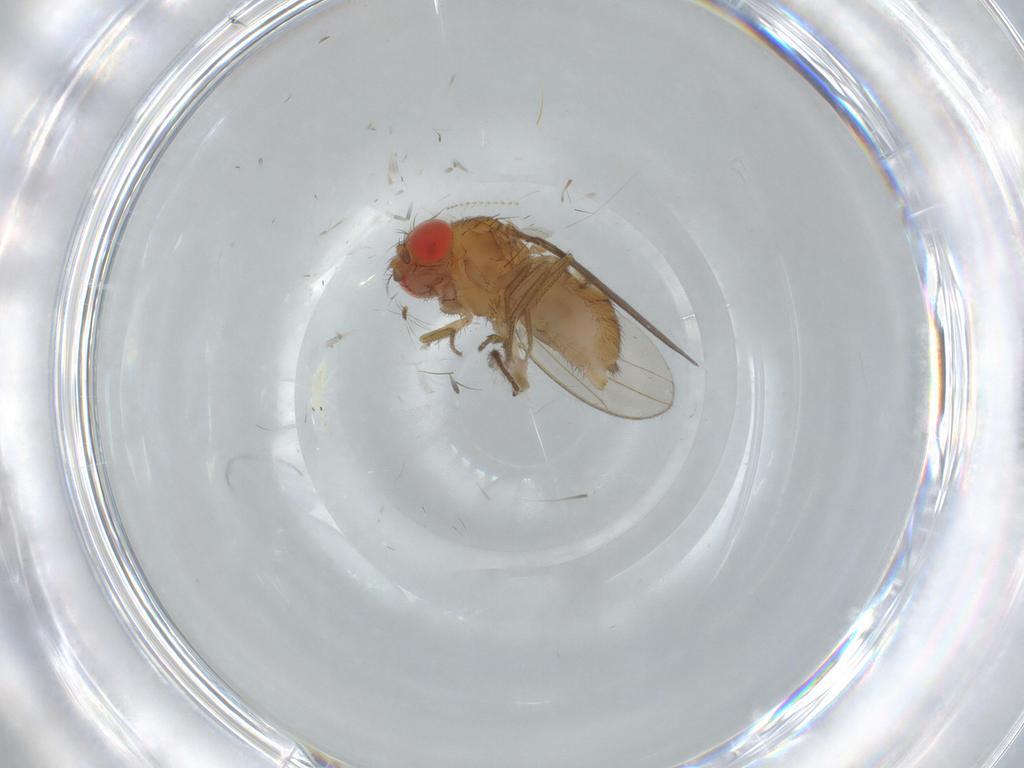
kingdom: Animalia
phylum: Arthropoda
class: Insecta
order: Diptera
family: Drosophilidae
